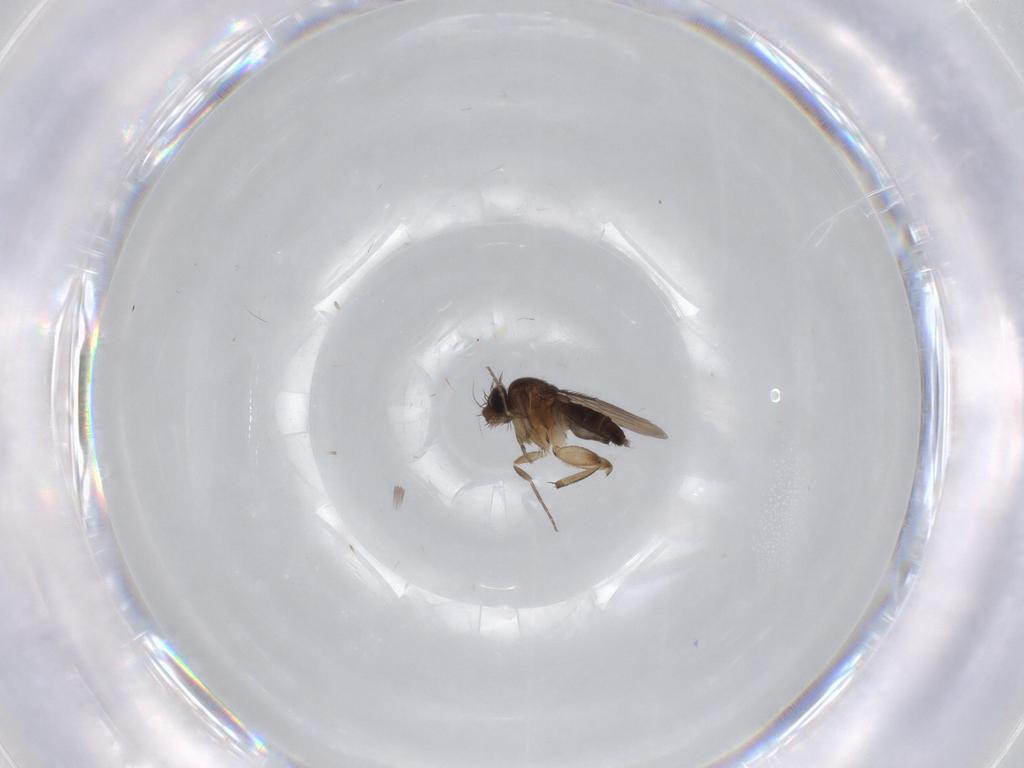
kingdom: Animalia
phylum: Arthropoda
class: Insecta
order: Diptera
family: Phoridae
